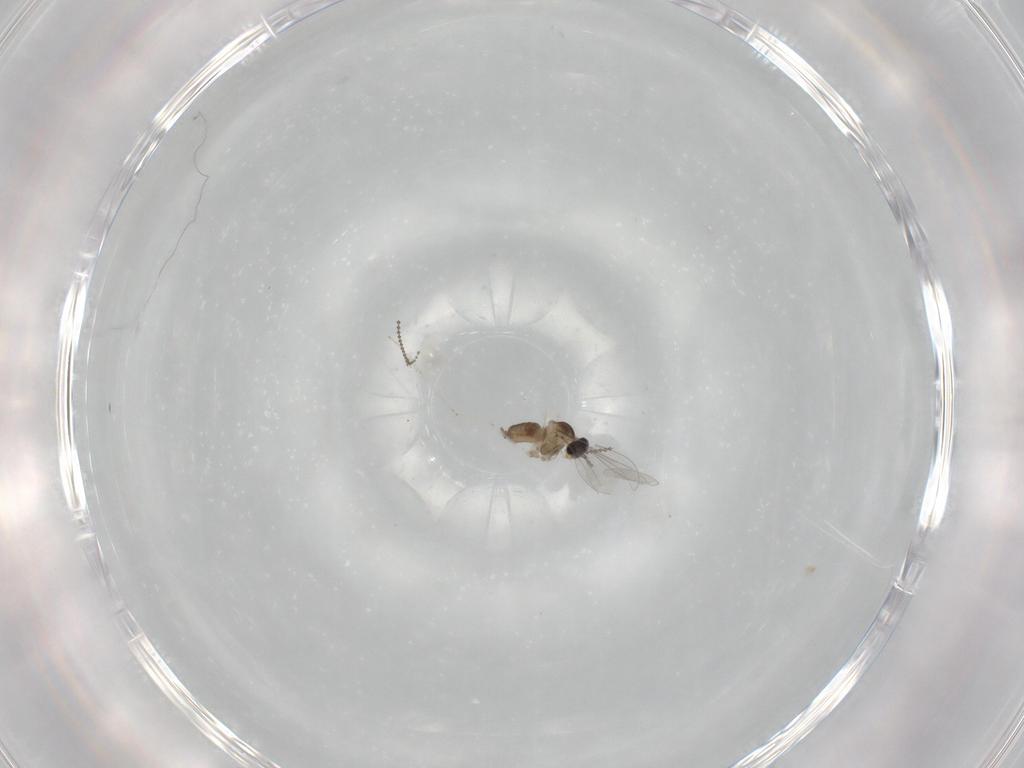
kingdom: Animalia
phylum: Arthropoda
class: Insecta
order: Diptera
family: Cecidomyiidae
